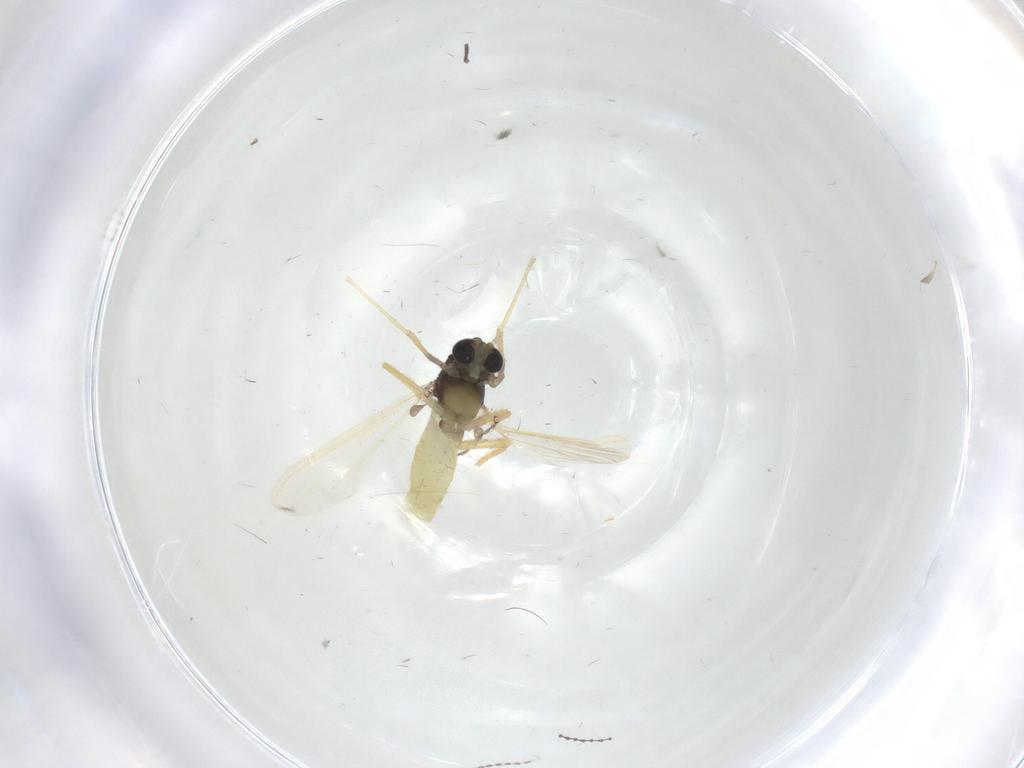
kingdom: Animalia
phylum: Arthropoda
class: Insecta
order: Diptera
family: Chironomidae
